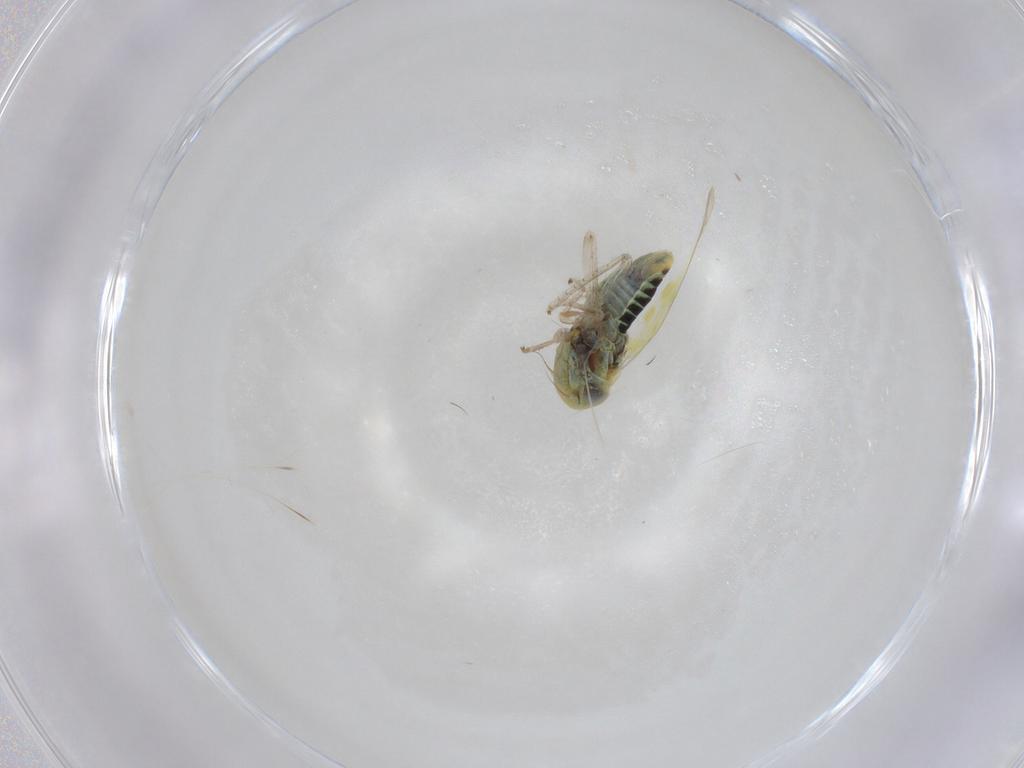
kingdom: Animalia
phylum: Arthropoda
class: Insecta
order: Hemiptera
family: Cicadellidae
